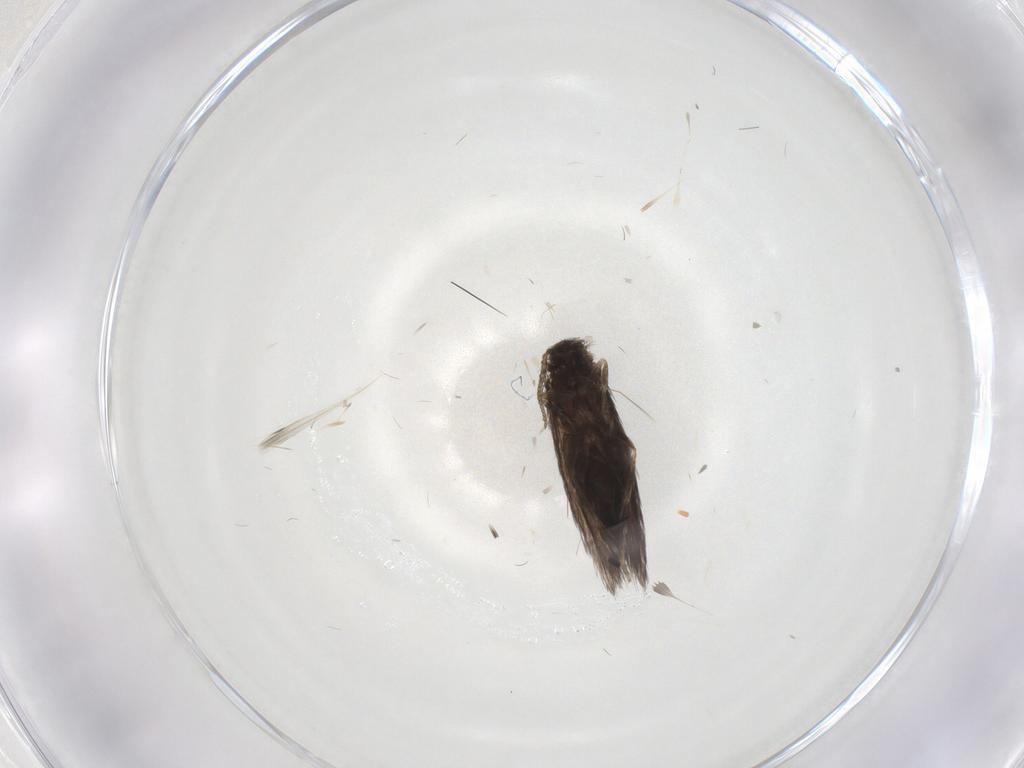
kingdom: Animalia
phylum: Arthropoda
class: Insecta
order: Trichoptera
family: Hydroptilidae
